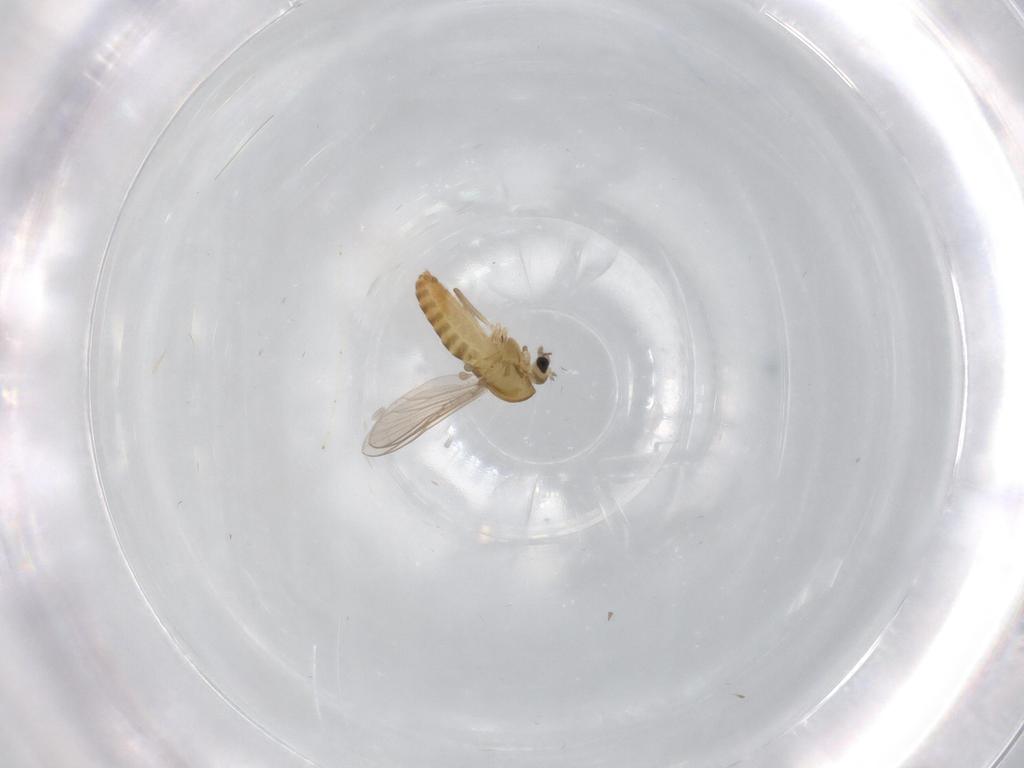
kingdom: Animalia
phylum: Arthropoda
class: Insecta
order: Diptera
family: Chironomidae
